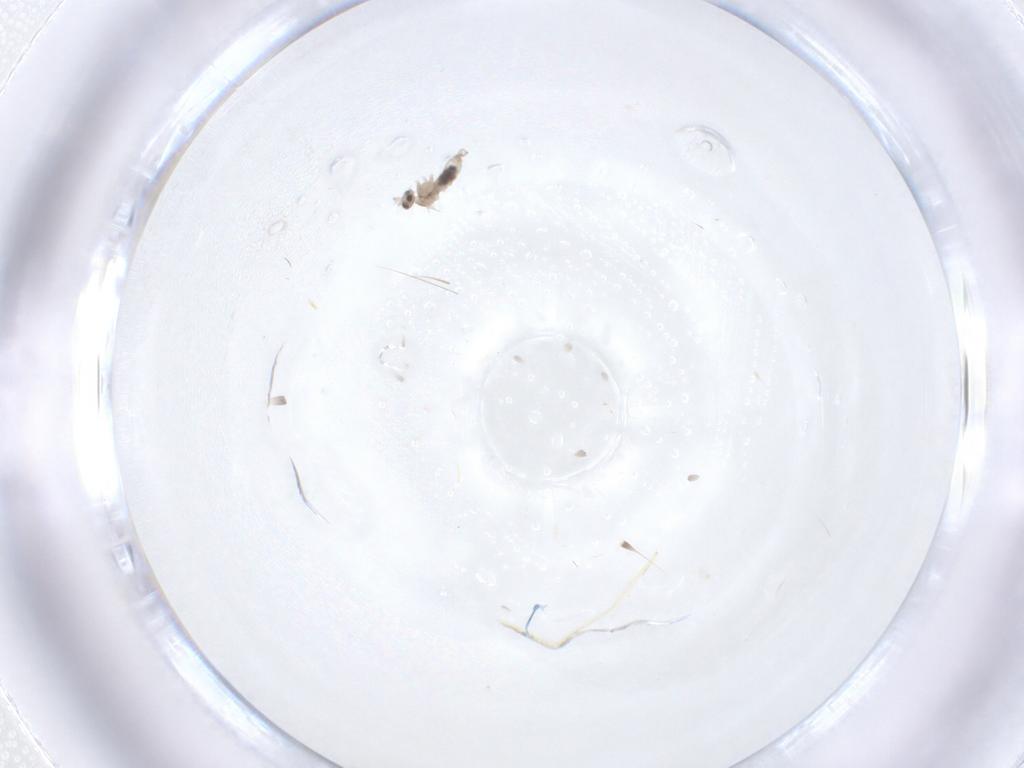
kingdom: Animalia
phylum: Arthropoda
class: Insecta
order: Diptera
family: Cecidomyiidae
